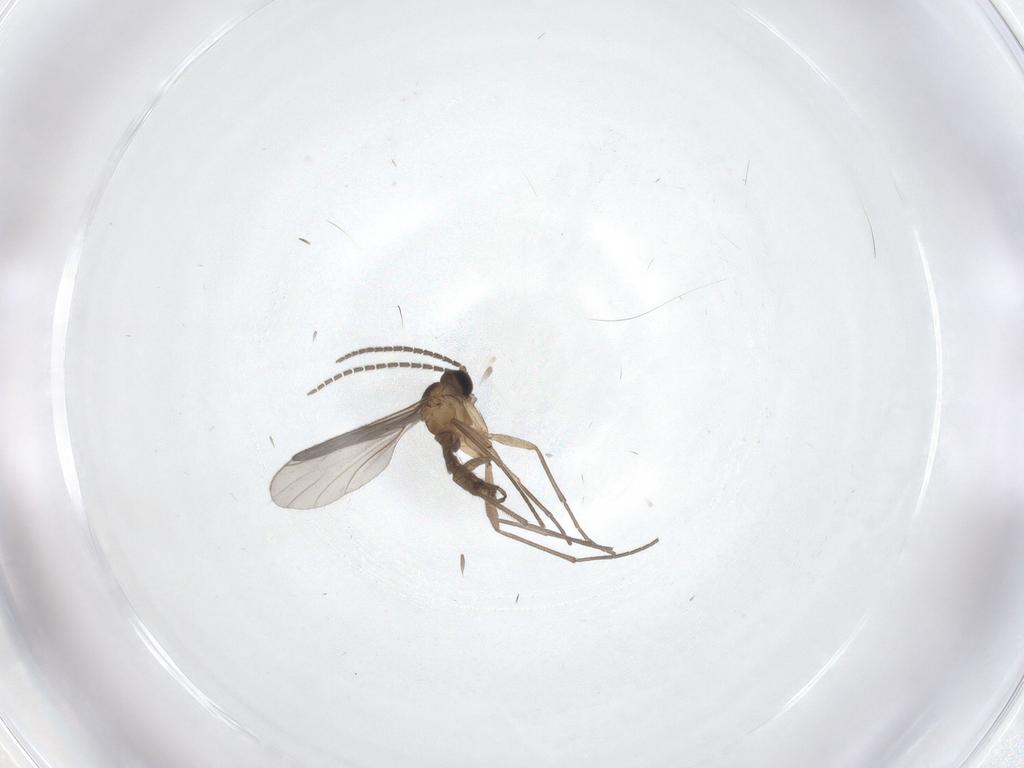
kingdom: Animalia
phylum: Arthropoda
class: Insecta
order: Diptera
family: Sciaridae
